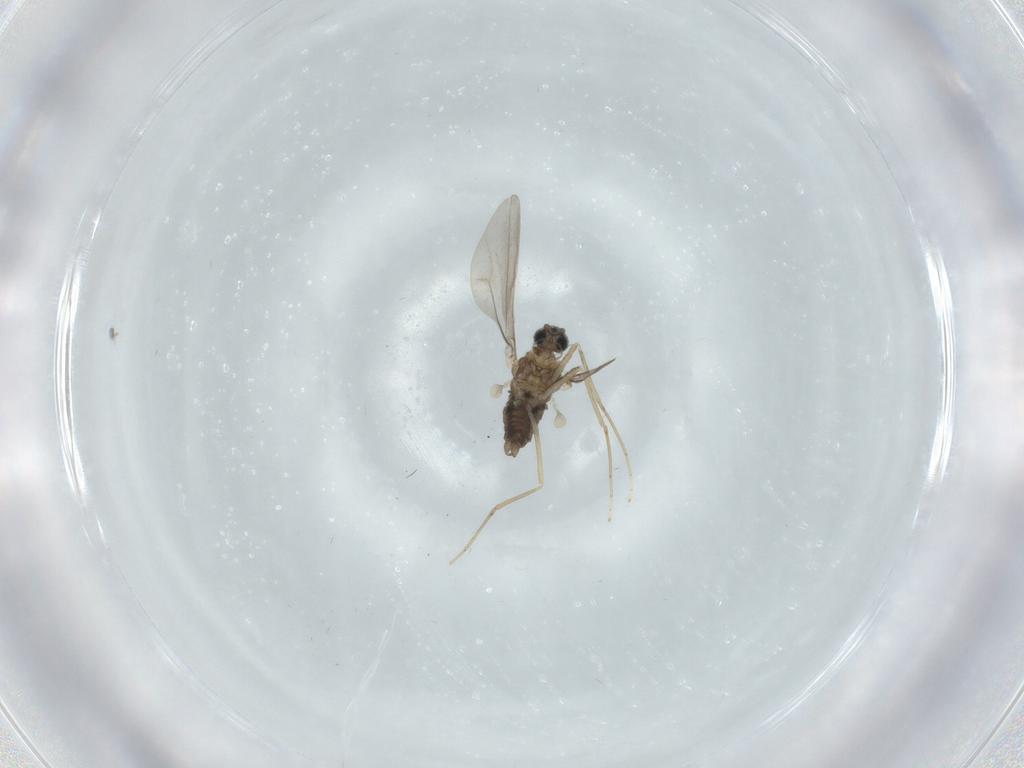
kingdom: Animalia
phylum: Arthropoda
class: Insecta
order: Diptera
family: Cecidomyiidae
